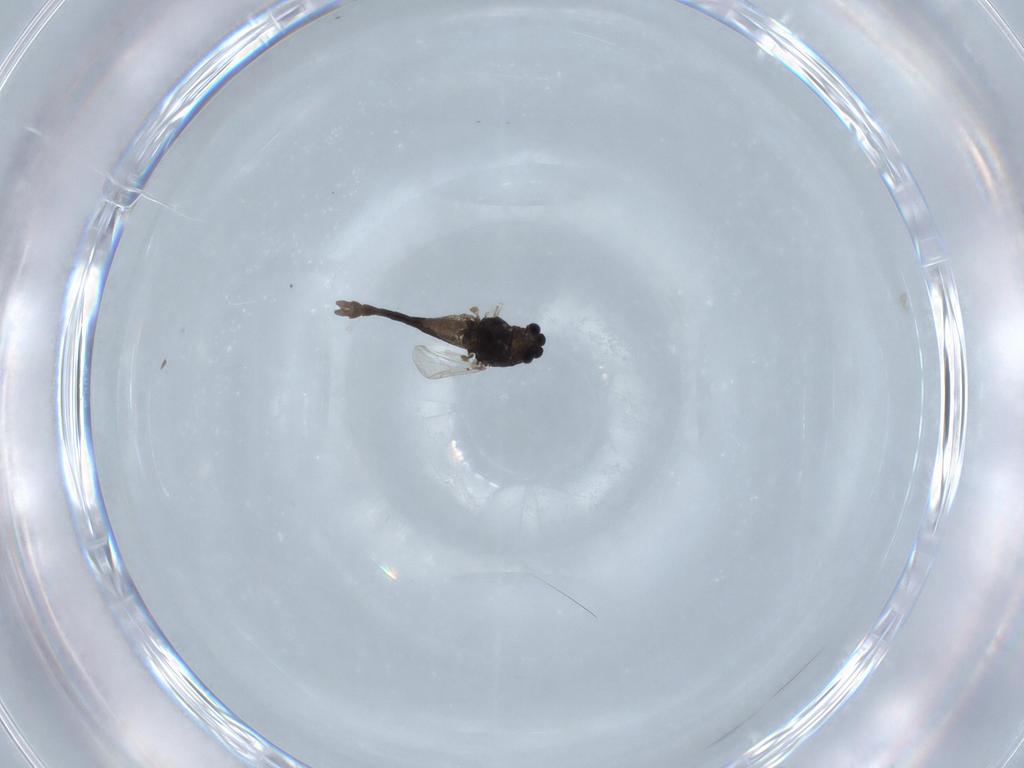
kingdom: Animalia
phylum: Arthropoda
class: Insecta
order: Diptera
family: Chironomidae
